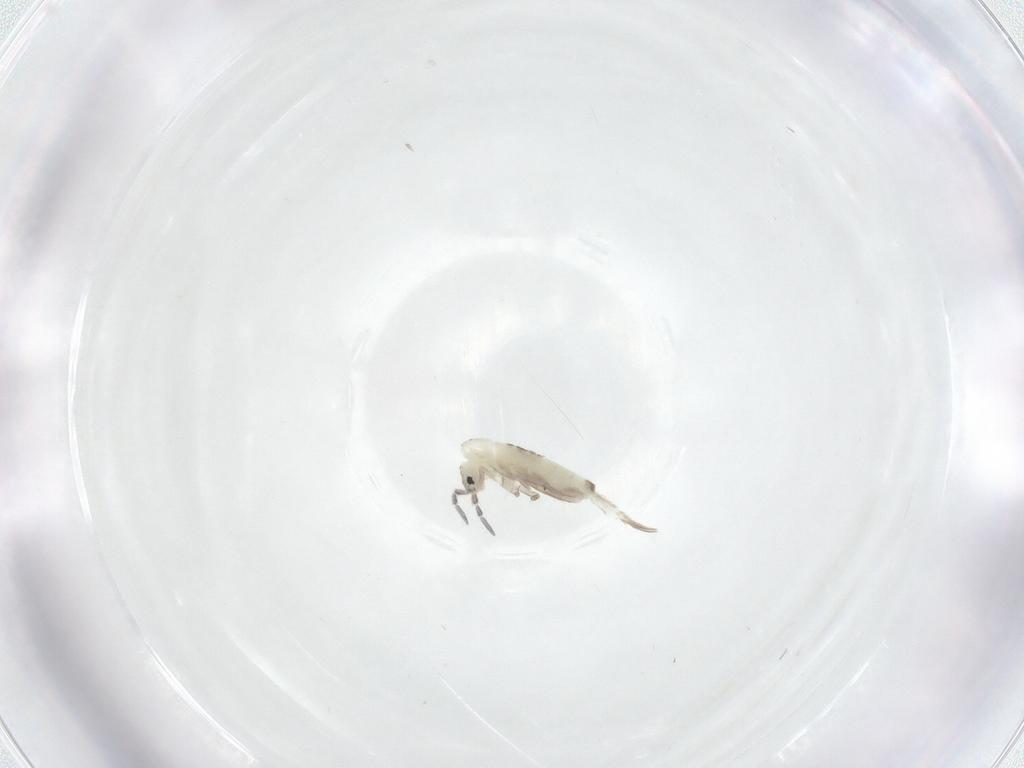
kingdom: Animalia
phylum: Arthropoda
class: Collembola
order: Entomobryomorpha
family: Entomobryidae
